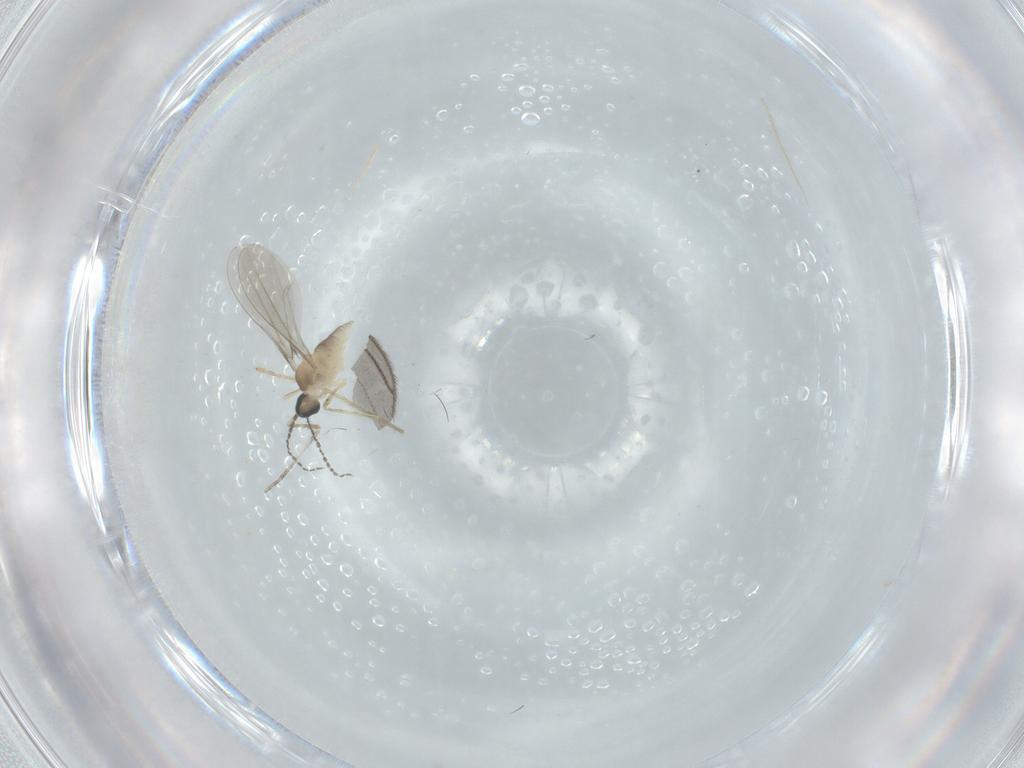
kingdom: Animalia
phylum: Arthropoda
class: Insecta
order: Diptera
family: Cecidomyiidae
